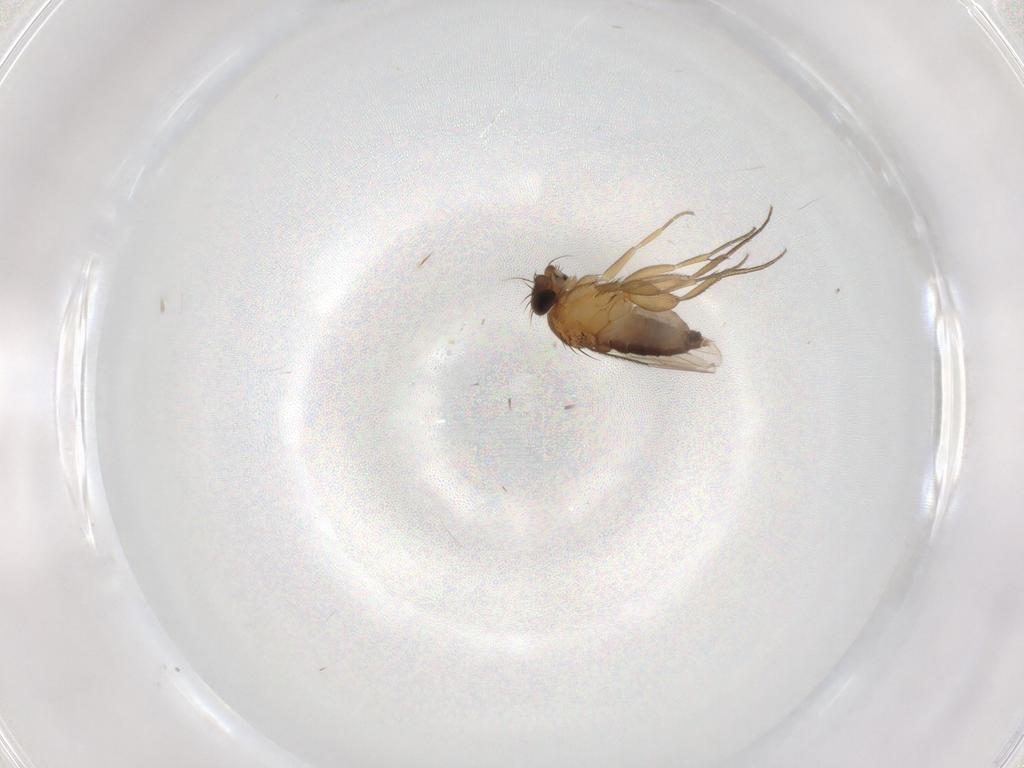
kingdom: Animalia
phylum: Arthropoda
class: Insecta
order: Diptera
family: Phoridae
